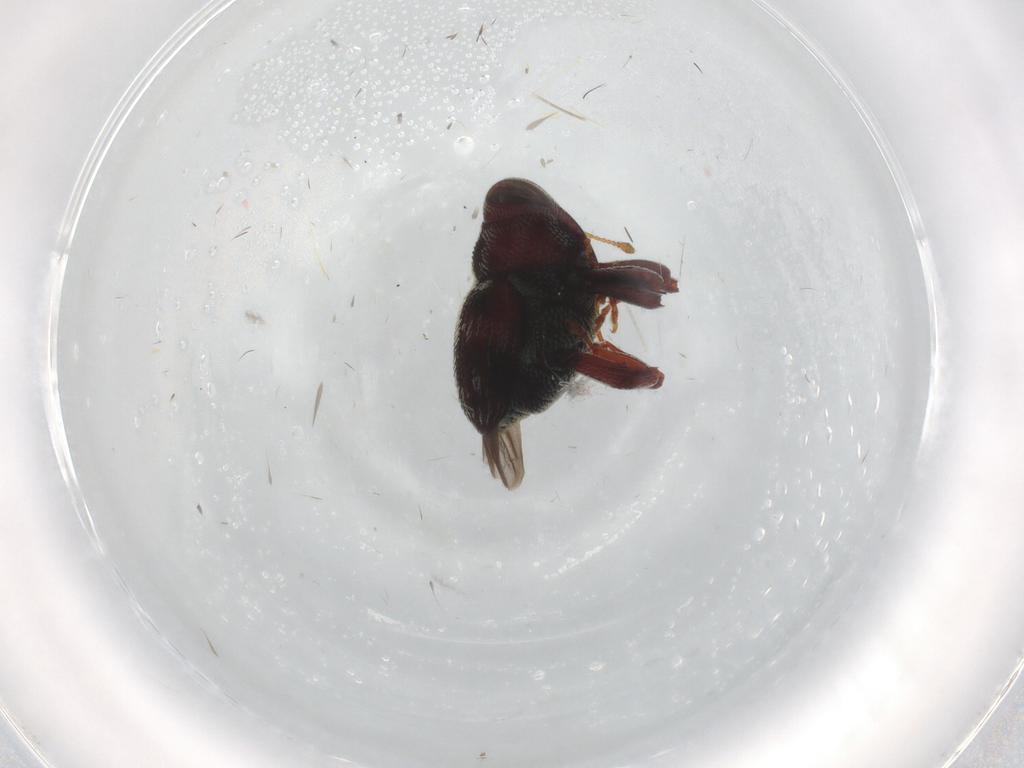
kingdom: Animalia
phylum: Arthropoda
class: Insecta
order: Coleoptera
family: Curculionidae
